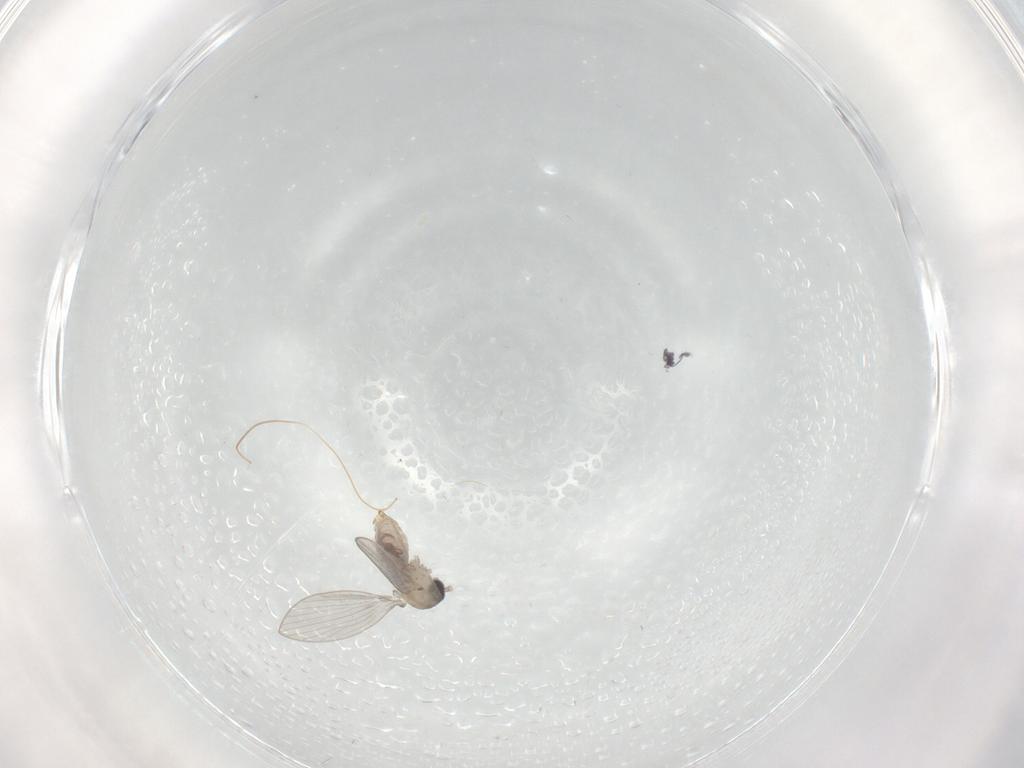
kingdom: Animalia
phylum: Arthropoda
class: Insecta
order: Diptera
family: Psychodidae
